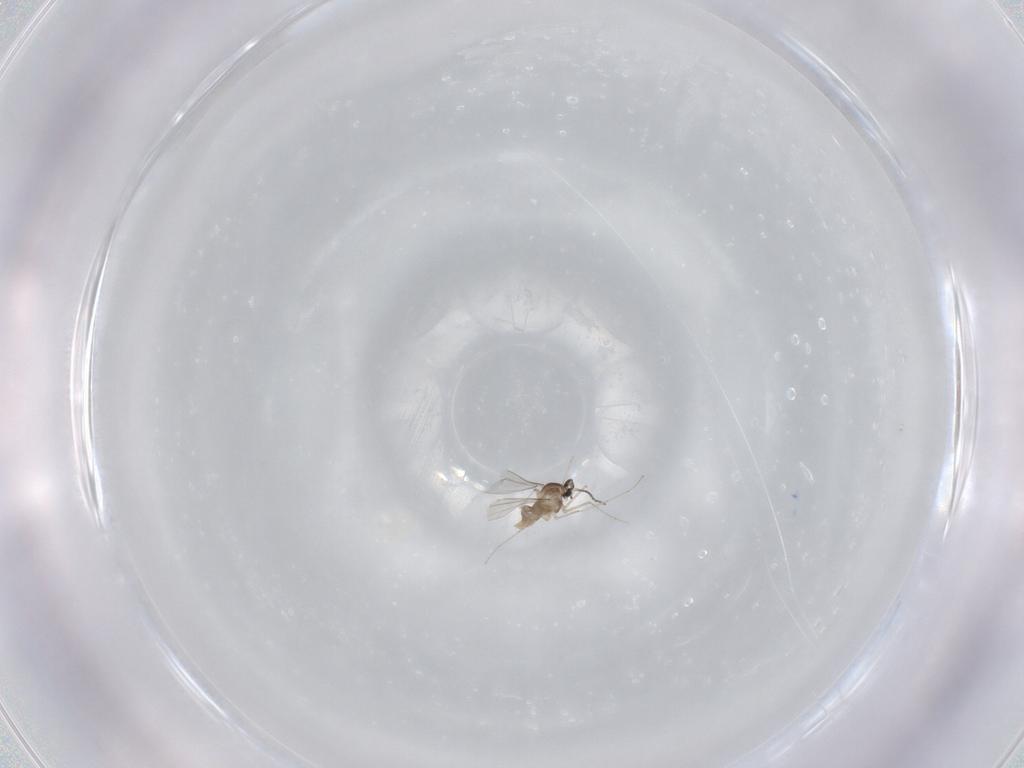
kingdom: Animalia
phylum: Arthropoda
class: Insecta
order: Diptera
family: Cecidomyiidae
